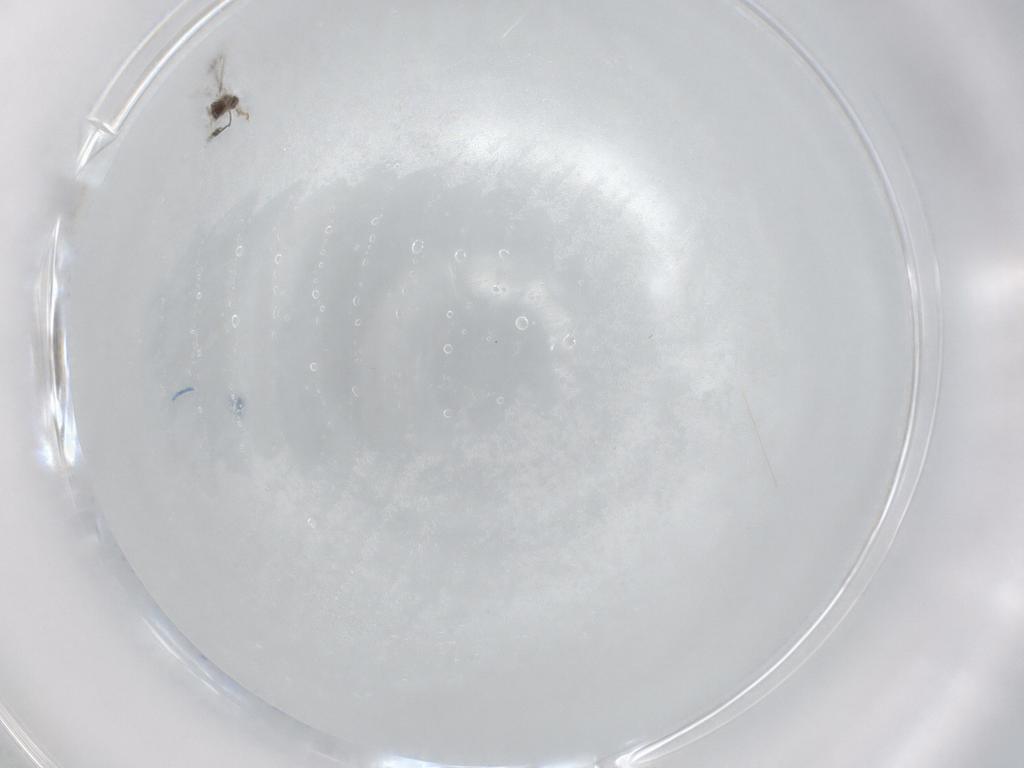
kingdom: Animalia
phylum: Arthropoda
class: Insecta
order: Hymenoptera
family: Mymaridae
